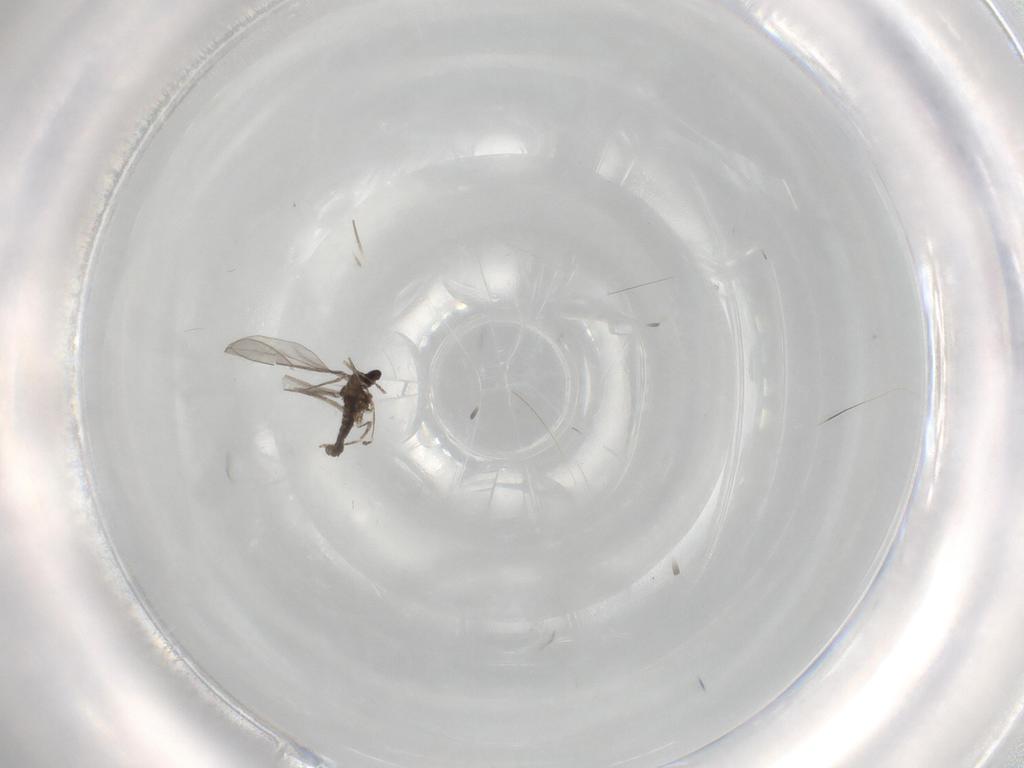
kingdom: Animalia
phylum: Arthropoda
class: Insecta
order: Diptera
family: Cecidomyiidae
